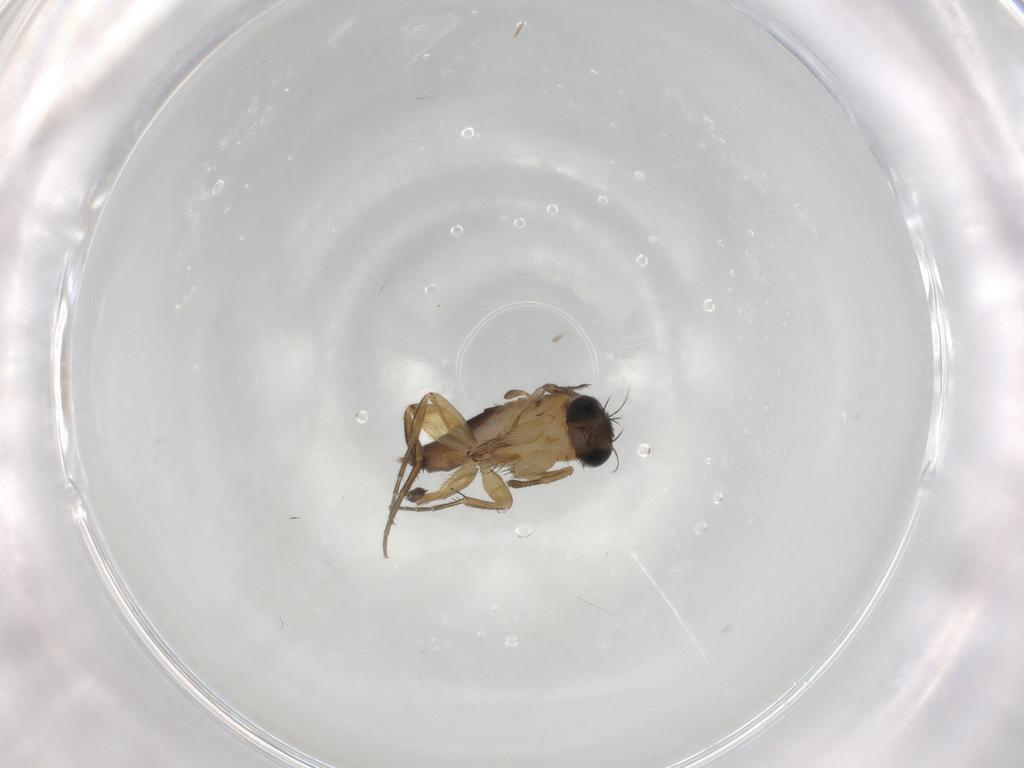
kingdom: Animalia
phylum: Arthropoda
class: Insecta
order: Diptera
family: Phoridae
